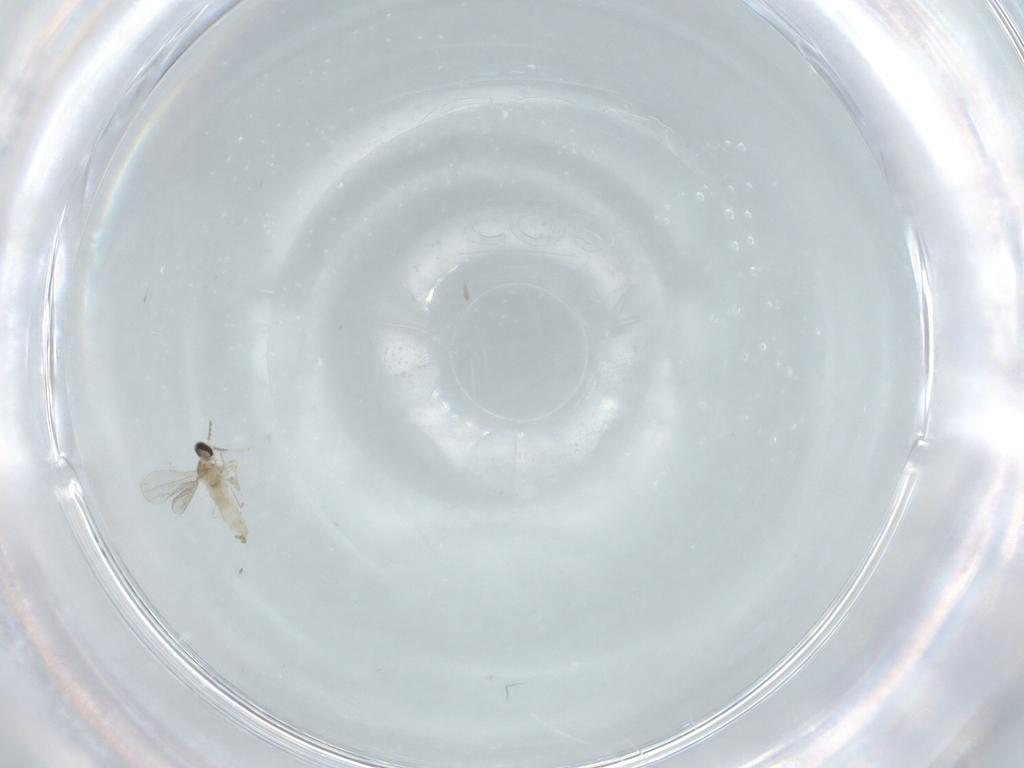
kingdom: Animalia
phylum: Arthropoda
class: Insecta
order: Diptera
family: Cecidomyiidae
